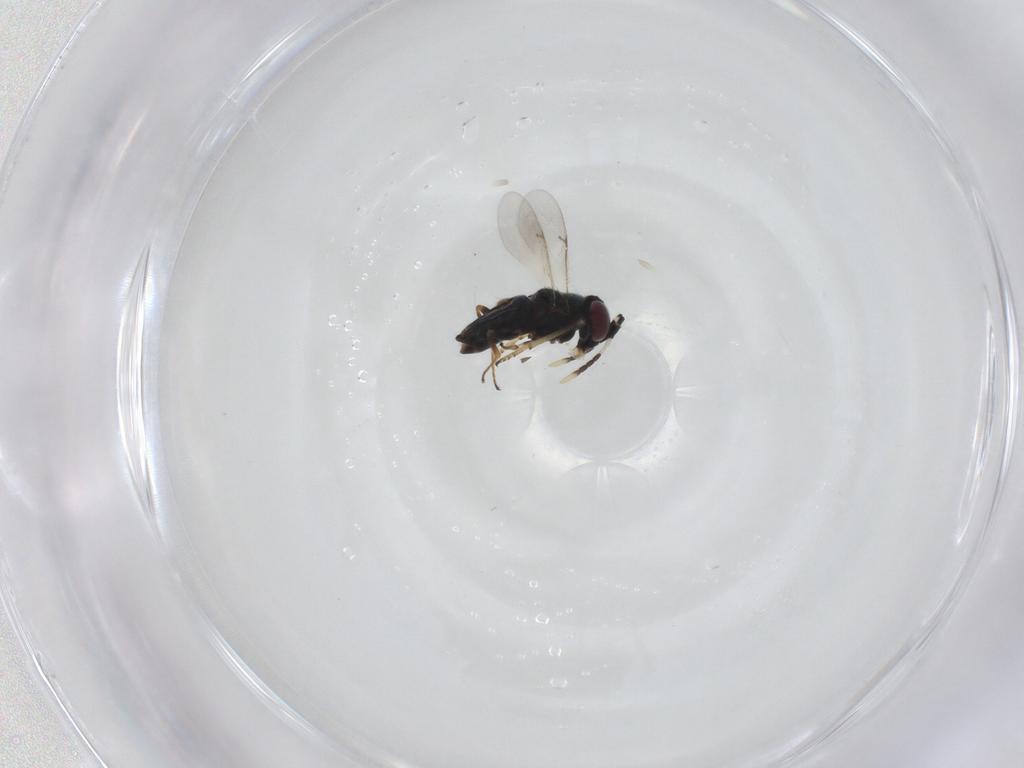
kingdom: Animalia
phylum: Arthropoda
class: Insecta
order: Hymenoptera
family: Encyrtidae
